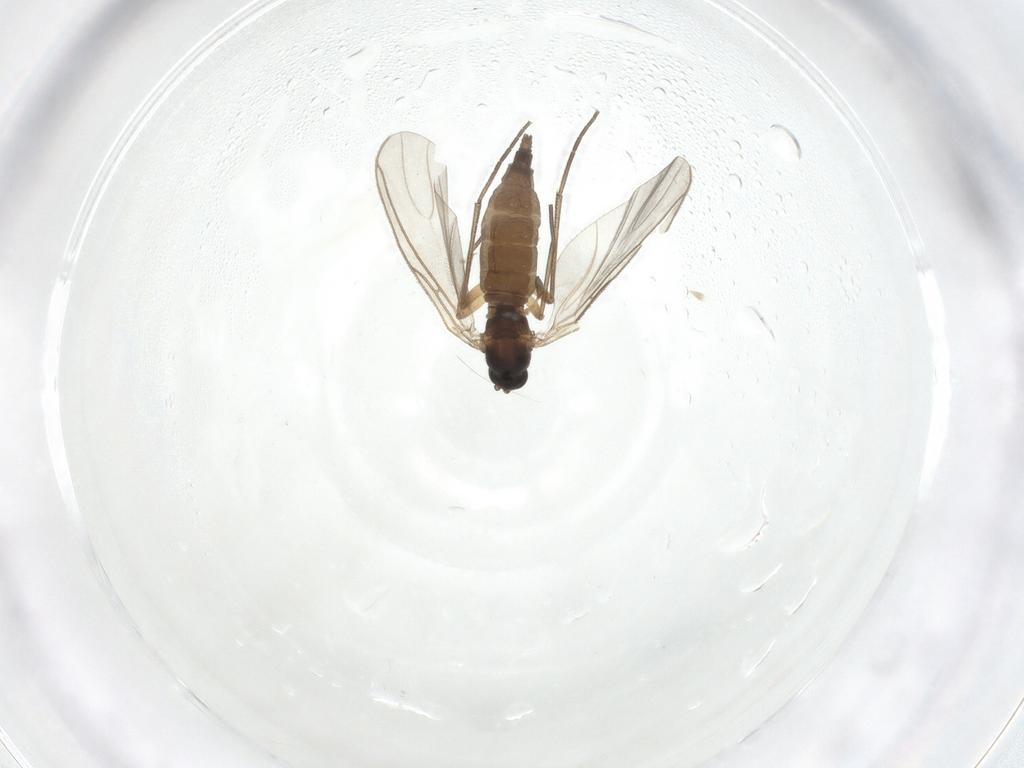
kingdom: Animalia
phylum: Arthropoda
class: Insecta
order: Diptera
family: Sciaridae
